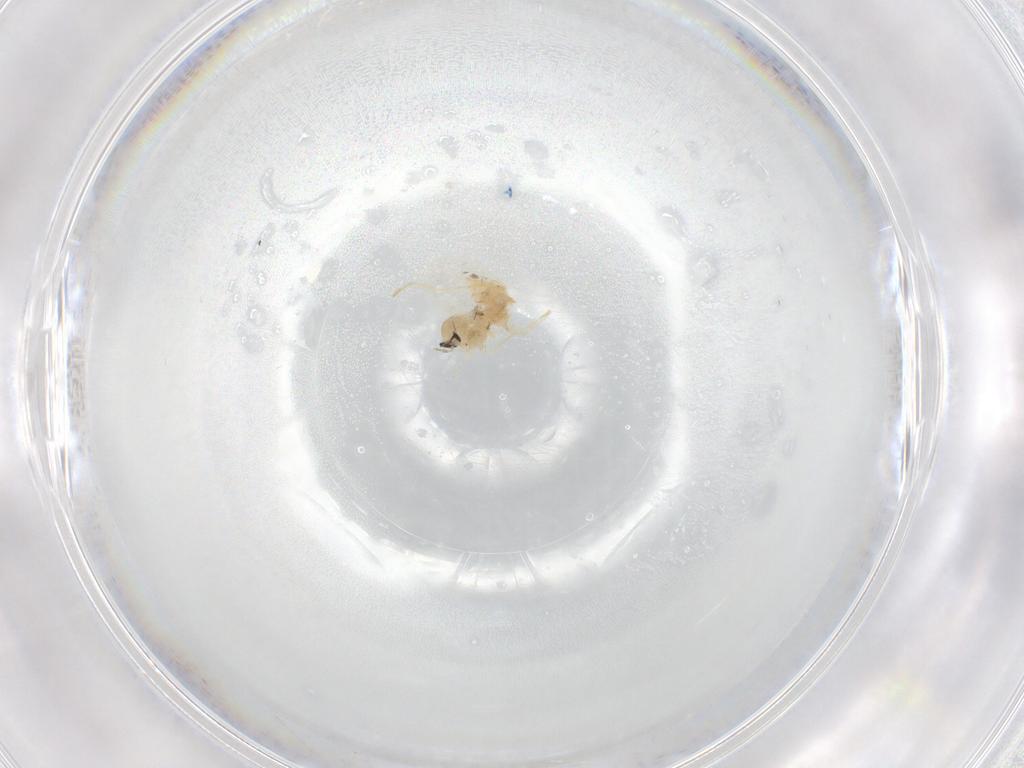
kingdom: Animalia
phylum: Arthropoda
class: Insecta
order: Diptera
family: Cecidomyiidae
